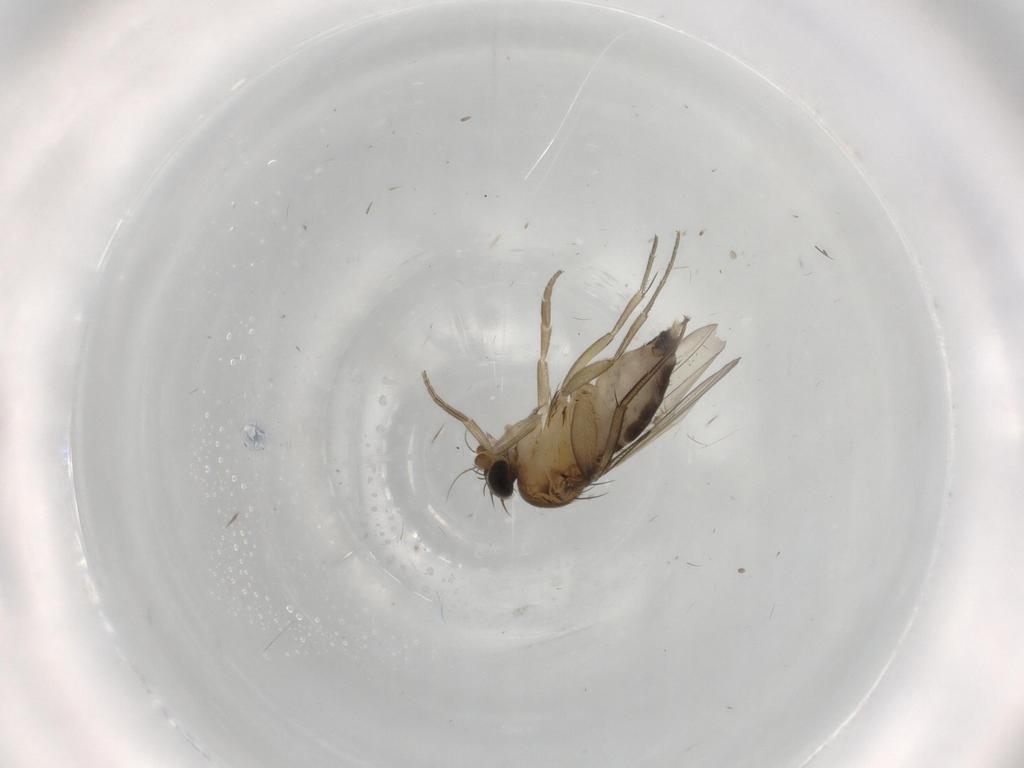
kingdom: Animalia
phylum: Arthropoda
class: Insecta
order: Diptera
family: Phoridae
